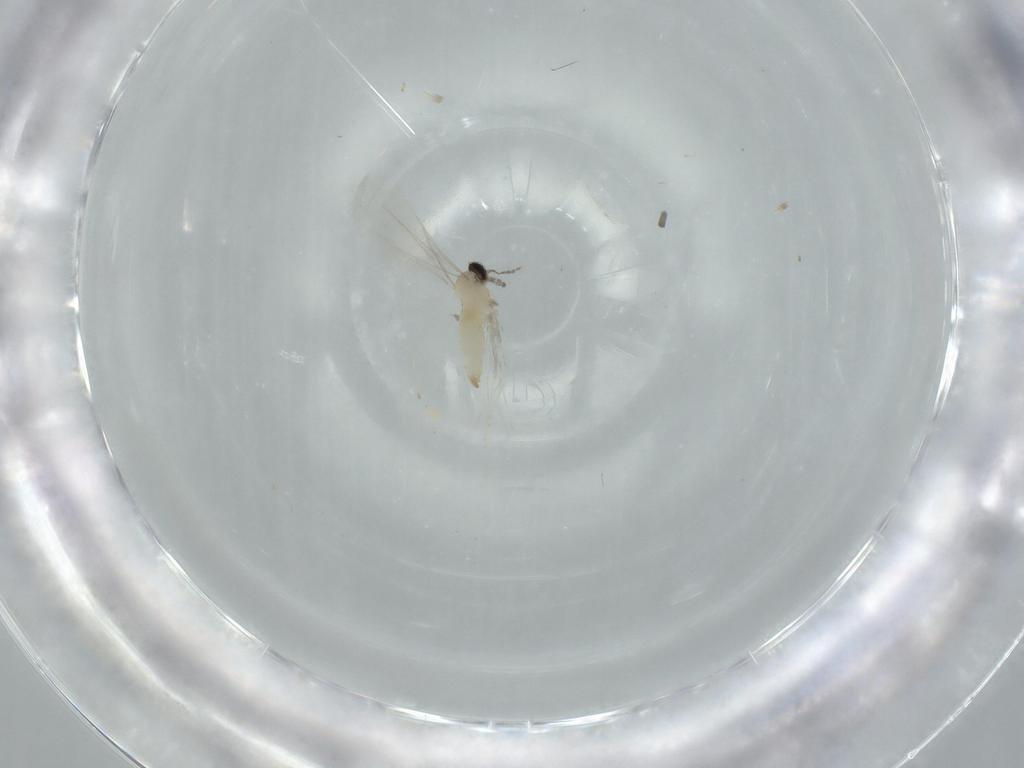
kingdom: Animalia
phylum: Arthropoda
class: Insecta
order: Diptera
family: Cecidomyiidae
